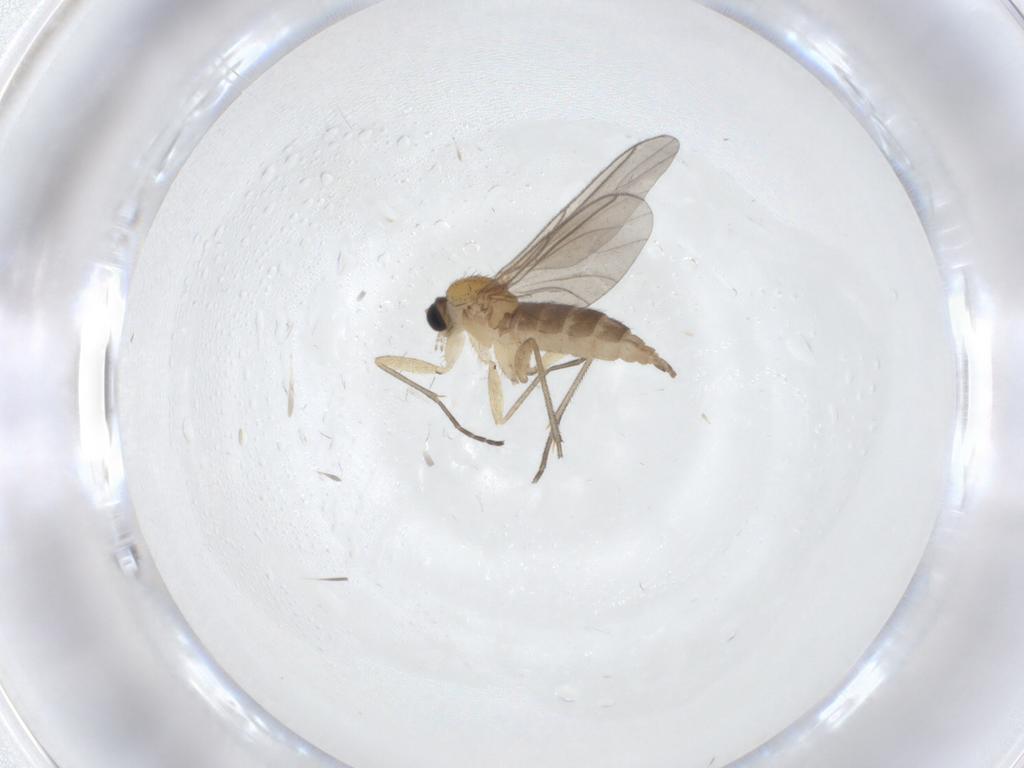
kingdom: Animalia
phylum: Arthropoda
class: Insecta
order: Diptera
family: Sciaridae
